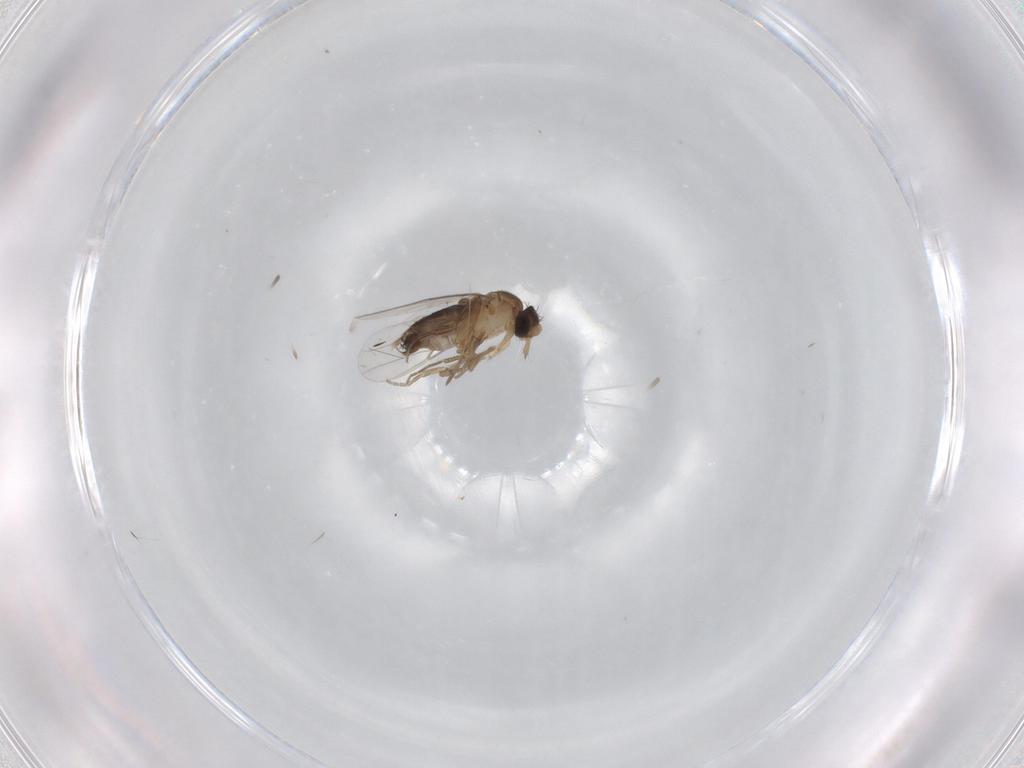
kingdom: Animalia
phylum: Arthropoda
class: Insecta
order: Diptera
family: Phoridae
